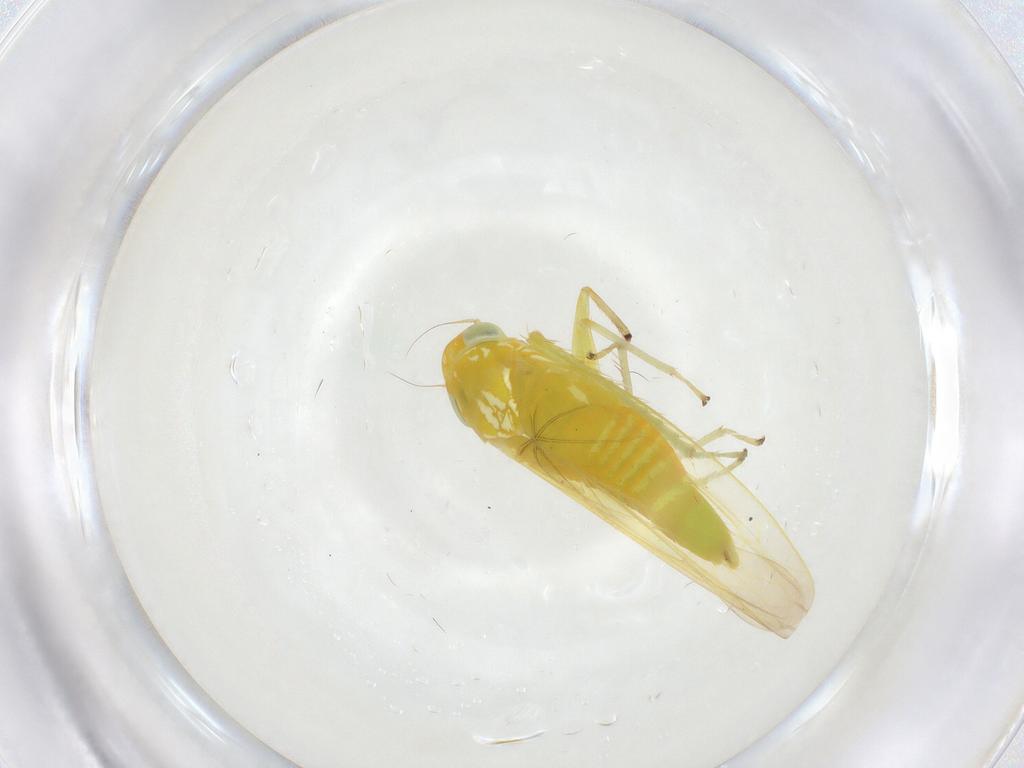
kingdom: Animalia
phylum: Arthropoda
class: Insecta
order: Hemiptera
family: Cicadellidae
